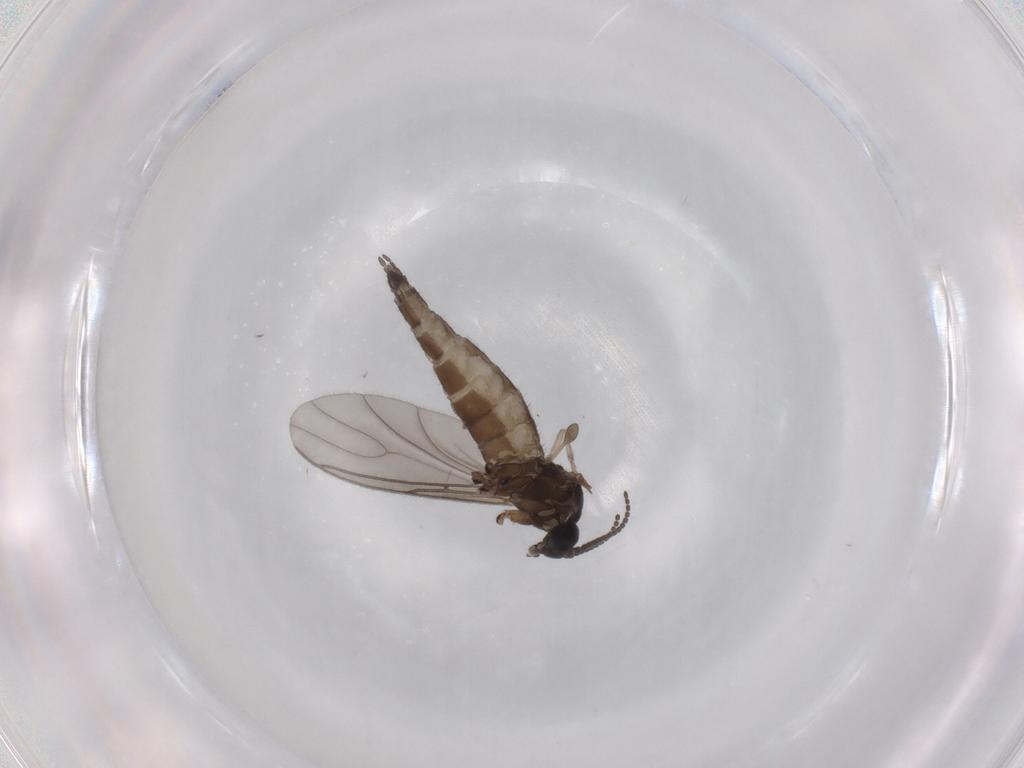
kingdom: Animalia
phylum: Arthropoda
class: Insecta
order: Diptera
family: Sciaridae
